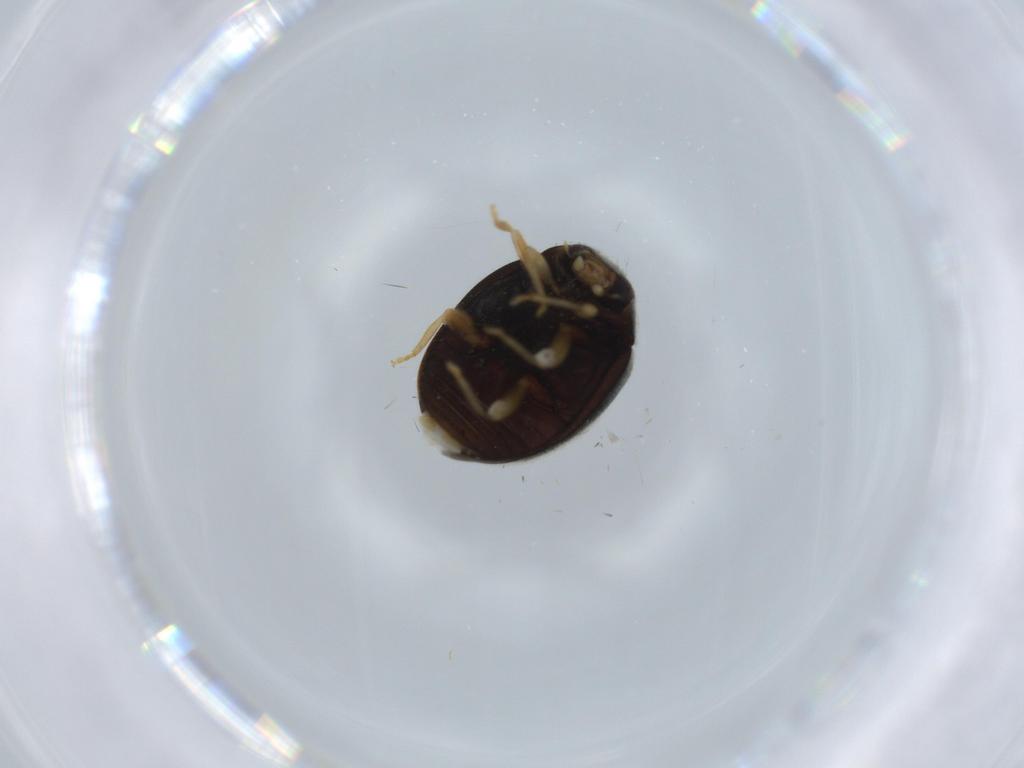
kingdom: Animalia
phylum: Arthropoda
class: Insecta
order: Coleoptera
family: Coccinellidae
